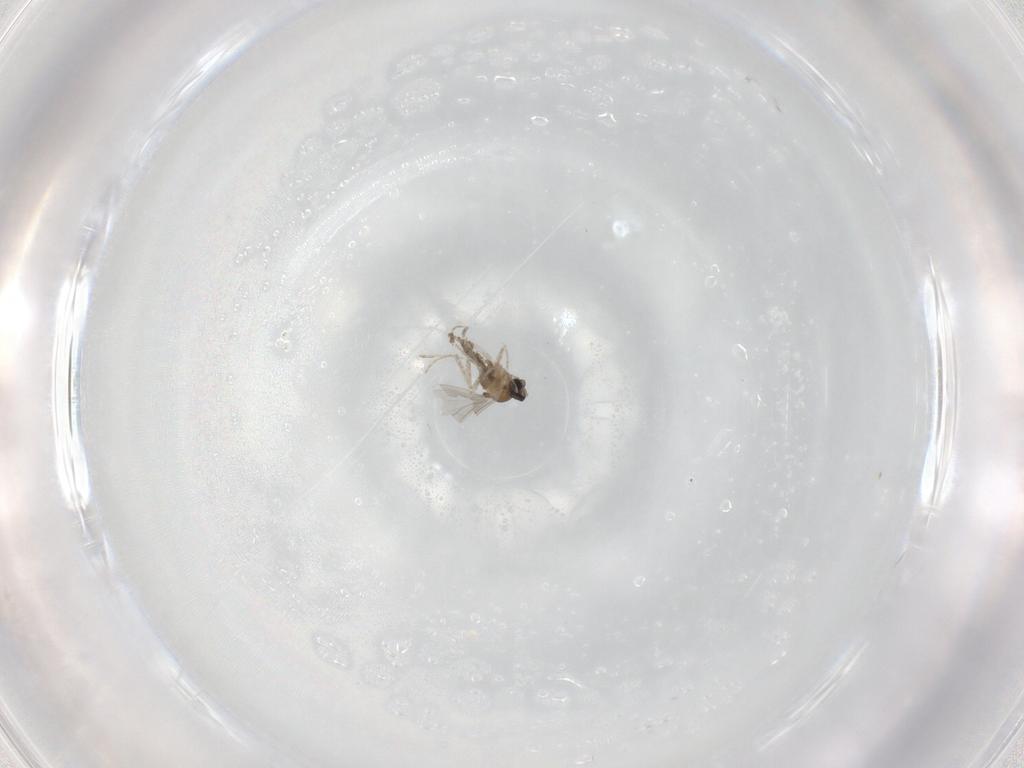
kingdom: Animalia
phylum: Arthropoda
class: Insecta
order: Diptera
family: Cecidomyiidae
